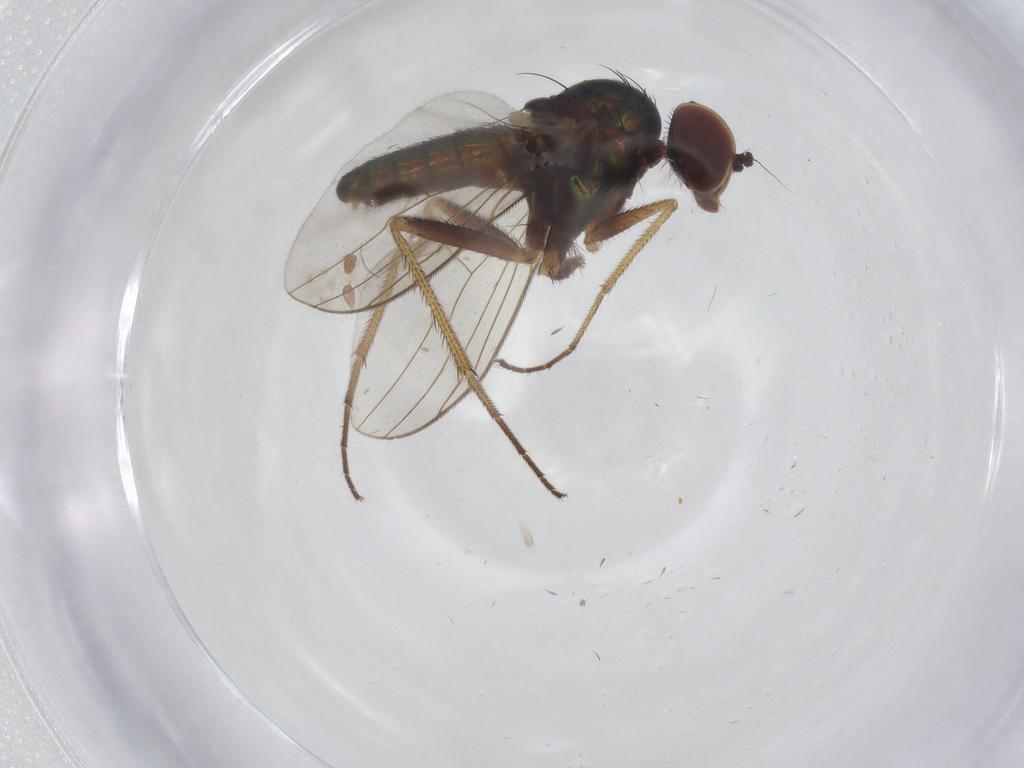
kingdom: Animalia
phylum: Arthropoda
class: Insecta
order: Diptera
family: Dolichopodidae
